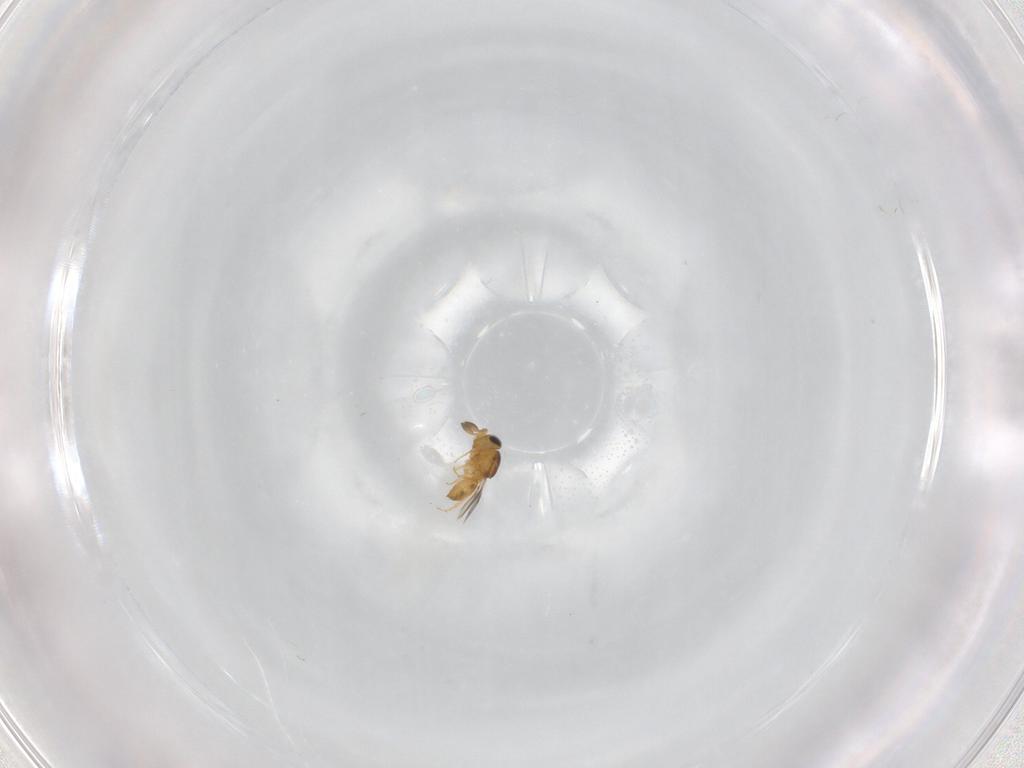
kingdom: Animalia
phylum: Arthropoda
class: Insecta
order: Hymenoptera
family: Scelionidae
